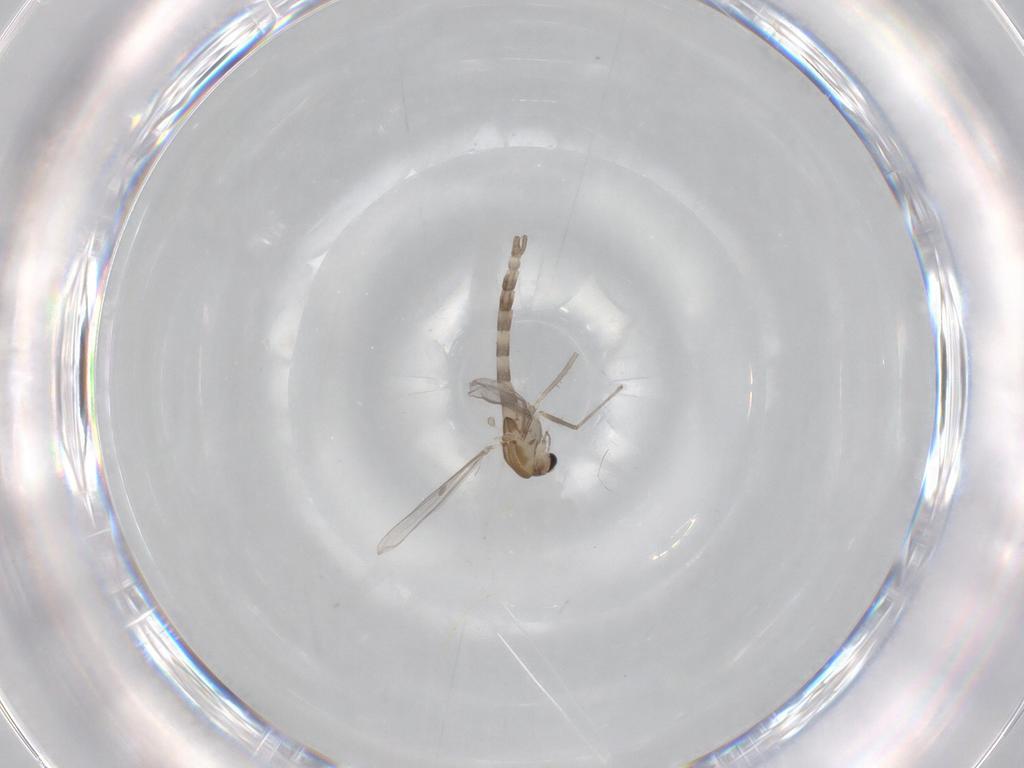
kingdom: Animalia
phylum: Arthropoda
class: Insecta
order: Diptera
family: Chironomidae
